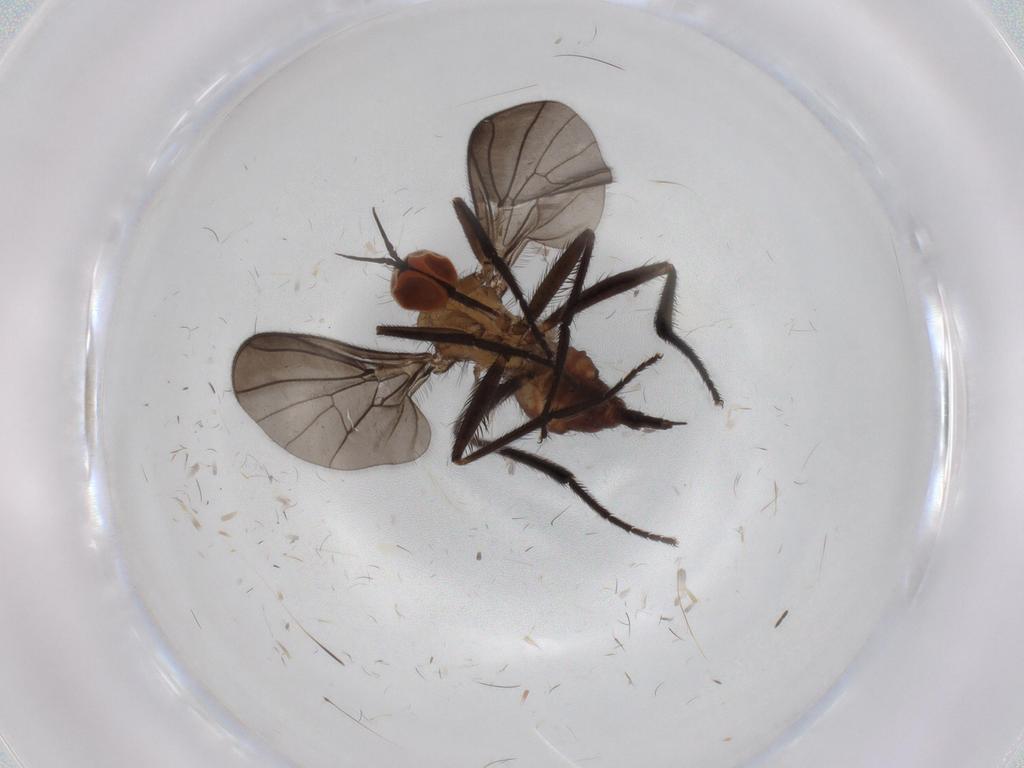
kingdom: Animalia
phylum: Arthropoda
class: Insecta
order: Diptera
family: Empididae
